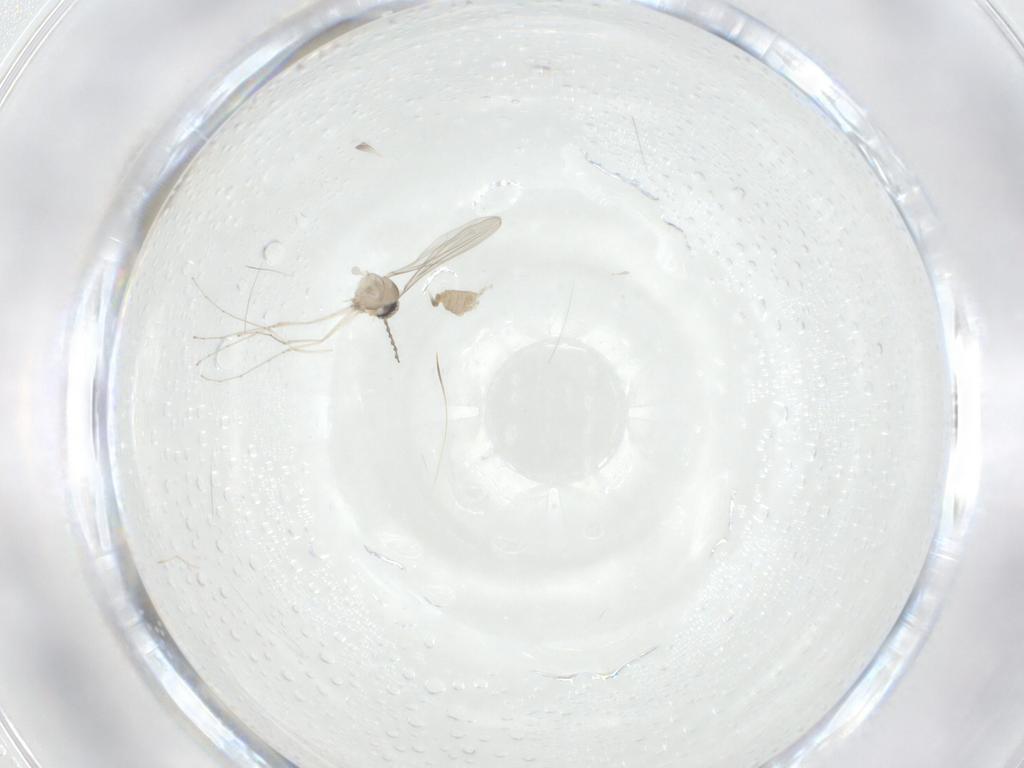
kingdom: Animalia
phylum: Arthropoda
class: Insecta
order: Diptera
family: Cecidomyiidae
